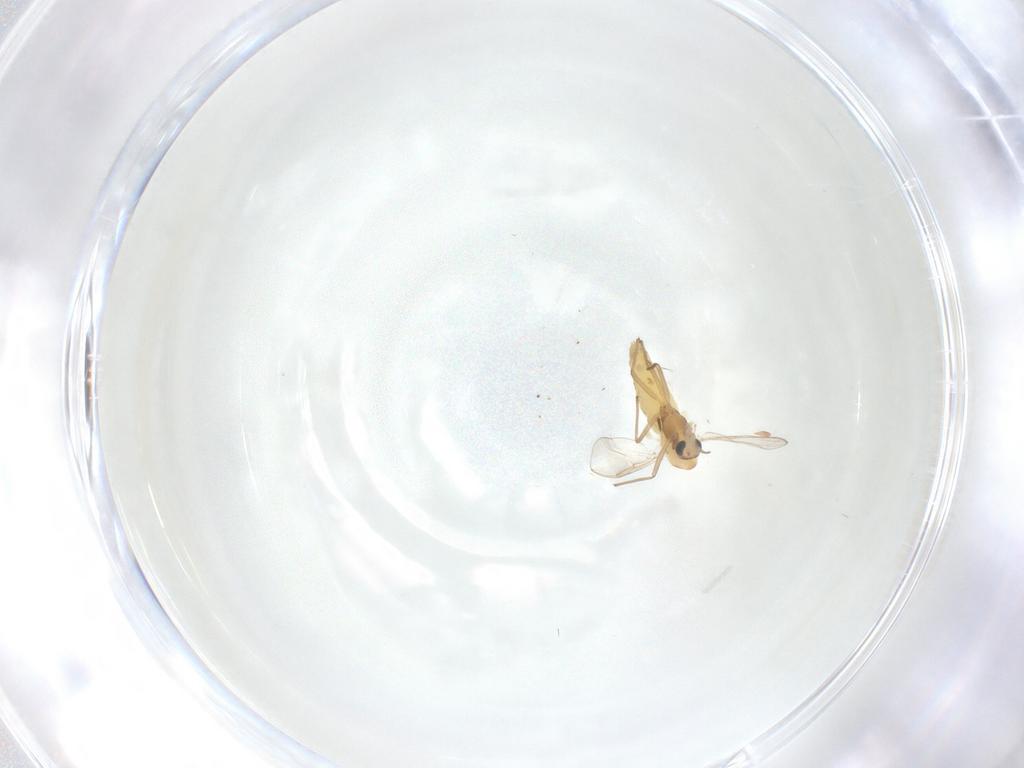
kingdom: Animalia
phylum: Arthropoda
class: Insecta
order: Diptera
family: Chironomidae
